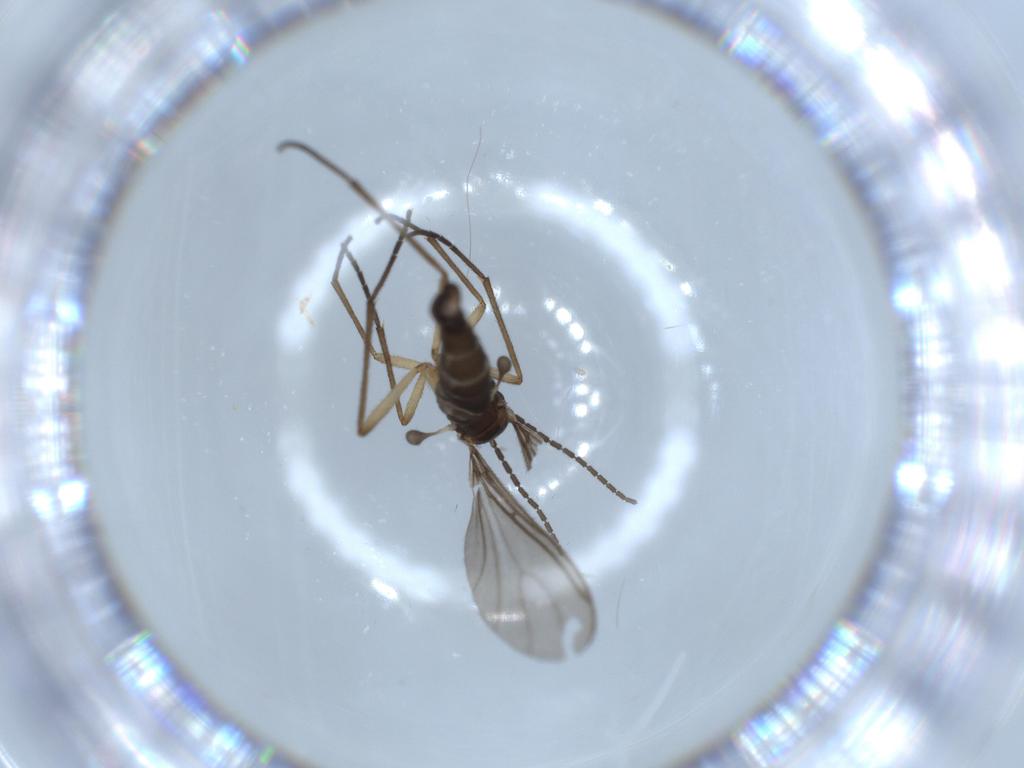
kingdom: Animalia
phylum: Arthropoda
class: Insecta
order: Diptera
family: Sciaridae
